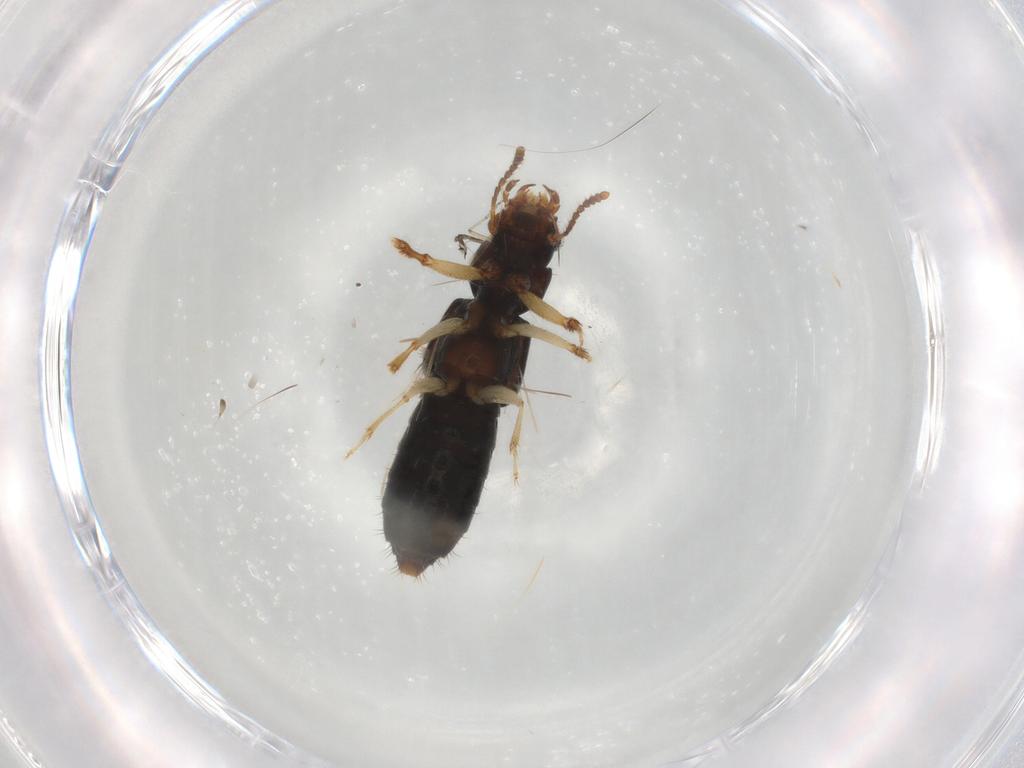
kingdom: Animalia
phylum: Arthropoda
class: Insecta
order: Coleoptera
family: Staphylinidae
